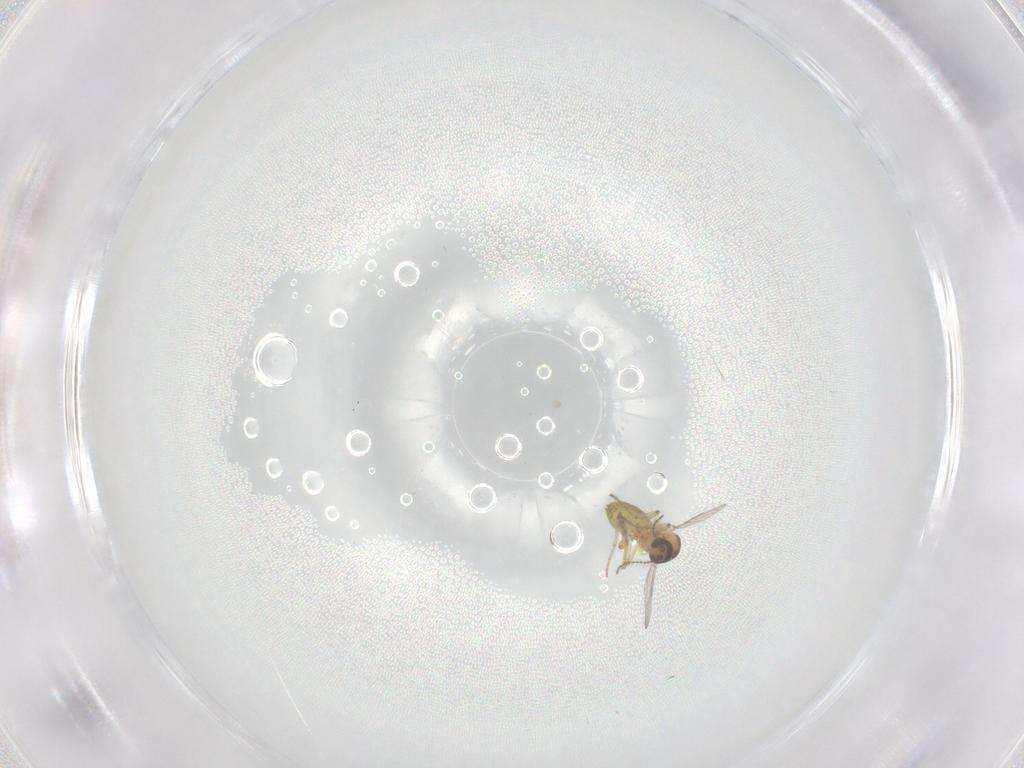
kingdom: Animalia
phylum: Arthropoda
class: Insecta
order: Diptera
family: Ceratopogonidae
